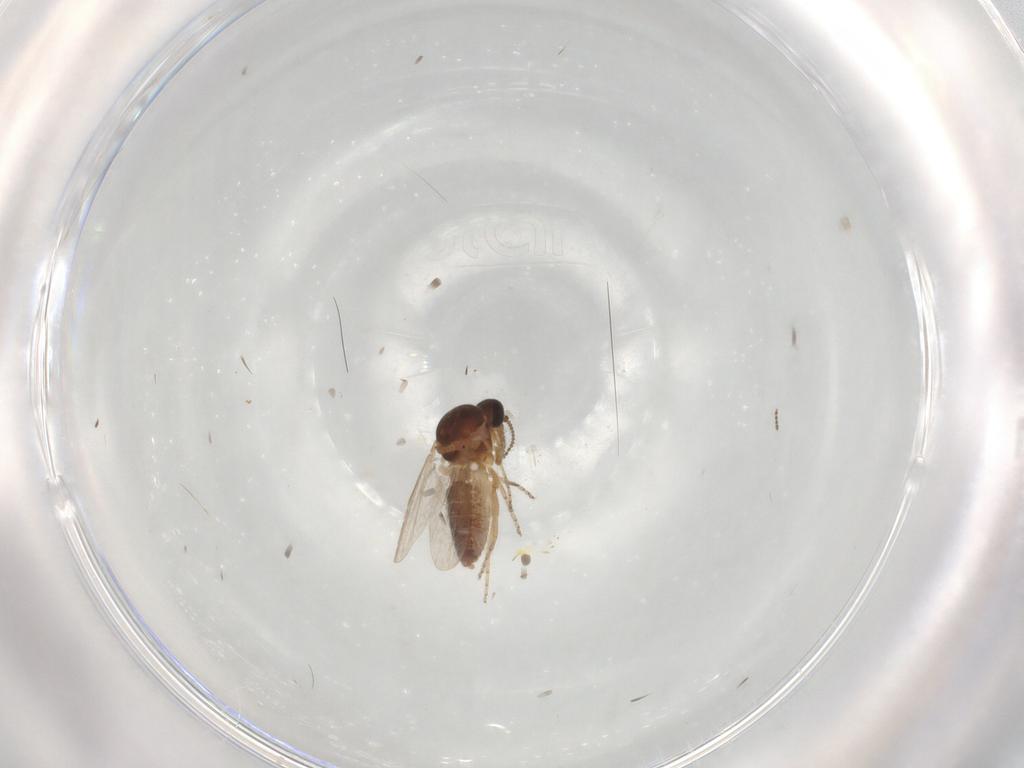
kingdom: Animalia
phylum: Arthropoda
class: Insecta
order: Diptera
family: Ceratopogonidae
